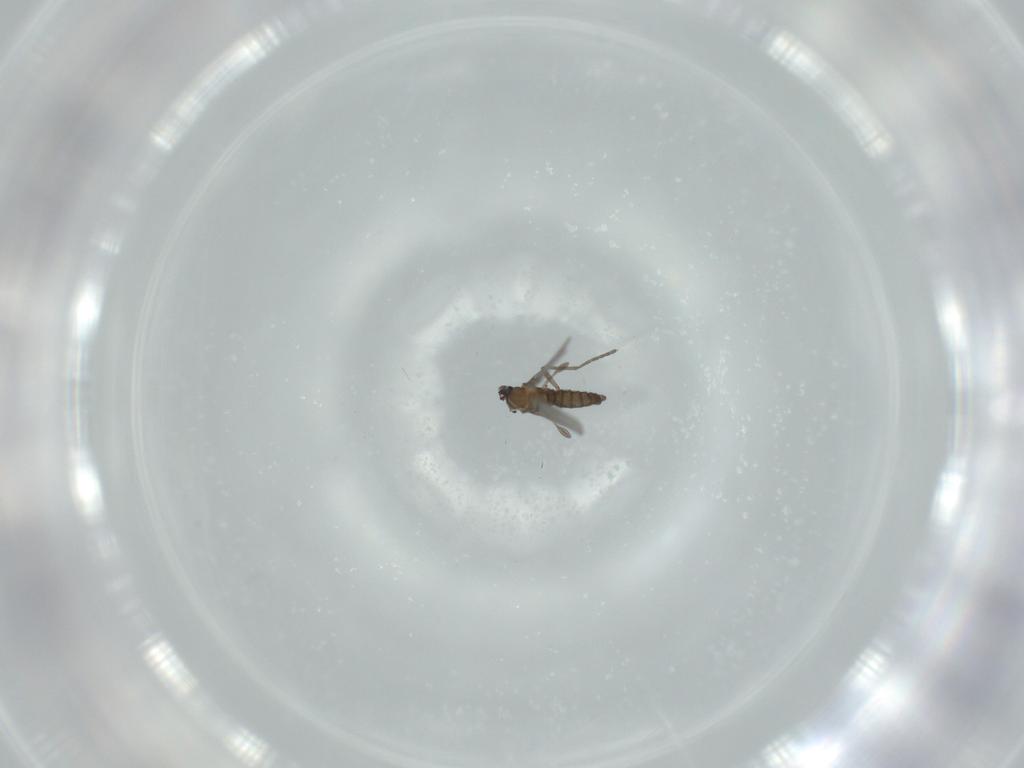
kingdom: Animalia
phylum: Arthropoda
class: Insecta
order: Diptera
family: Sciaridae
